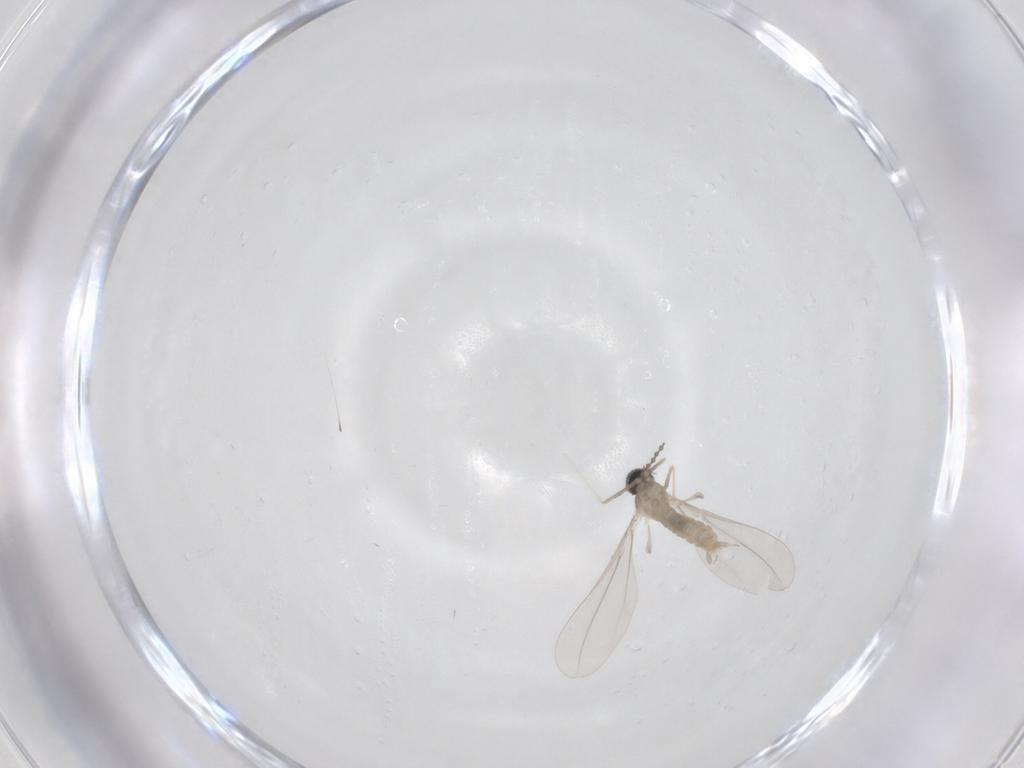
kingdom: Animalia
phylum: Arthropoda
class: Insecta
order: Diptera
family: Cecidomyiidae
